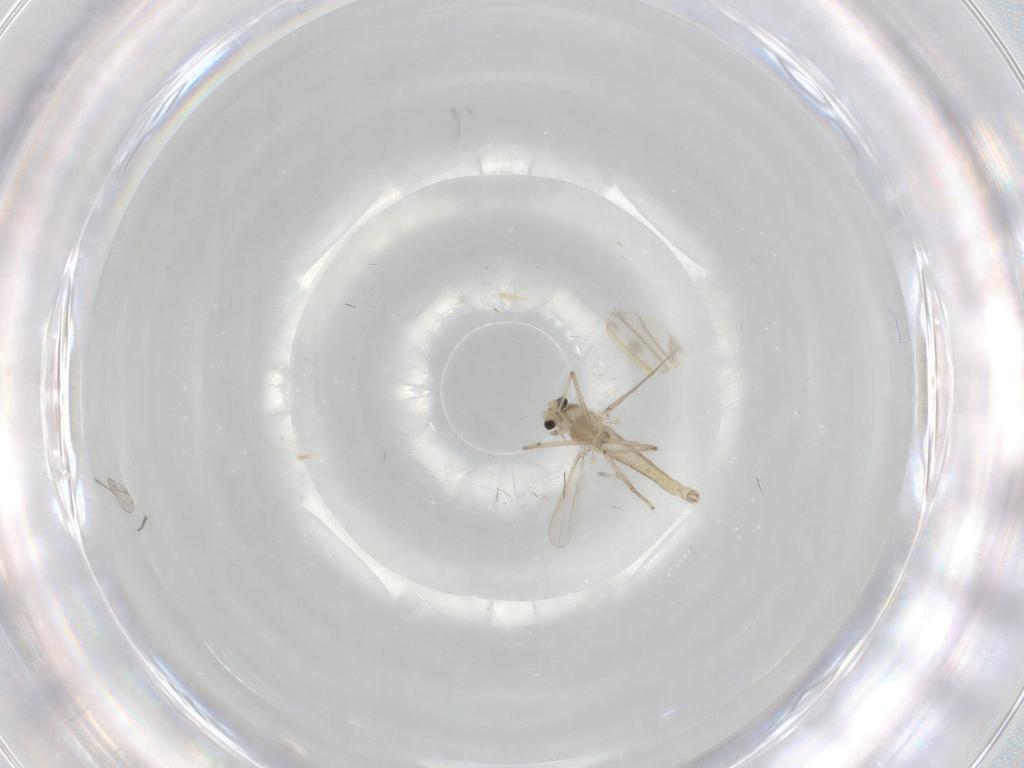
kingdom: Animalia
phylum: Arthropoda
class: Insecta
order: Diptera
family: Chironomidae
